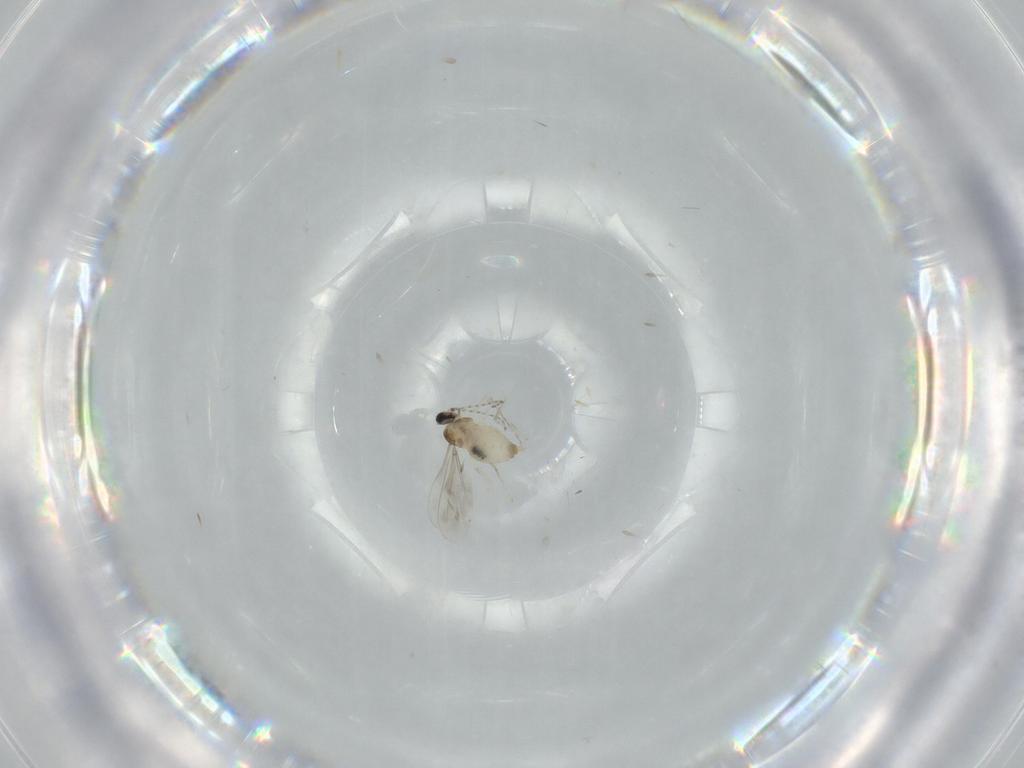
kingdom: Animalia
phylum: Arthropoda
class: Insecta
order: Diptera
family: Cecidomyiidae
